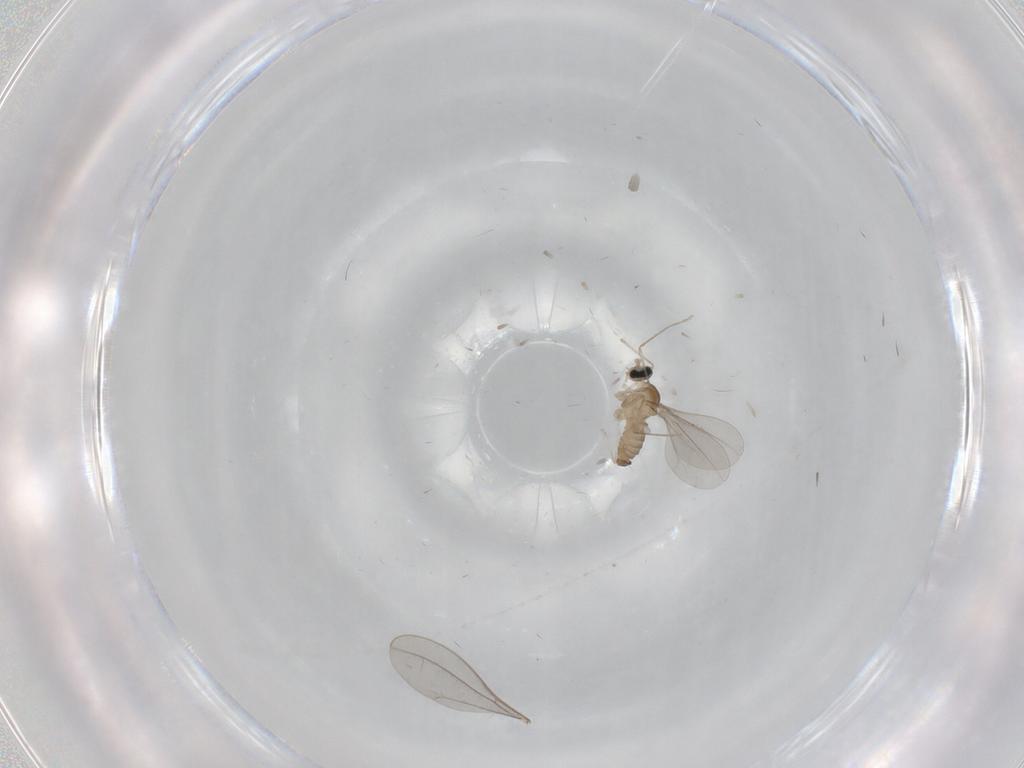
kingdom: Animalia
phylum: Arthropoda
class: Insecta
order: Diptera
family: Cecidomyiidae
